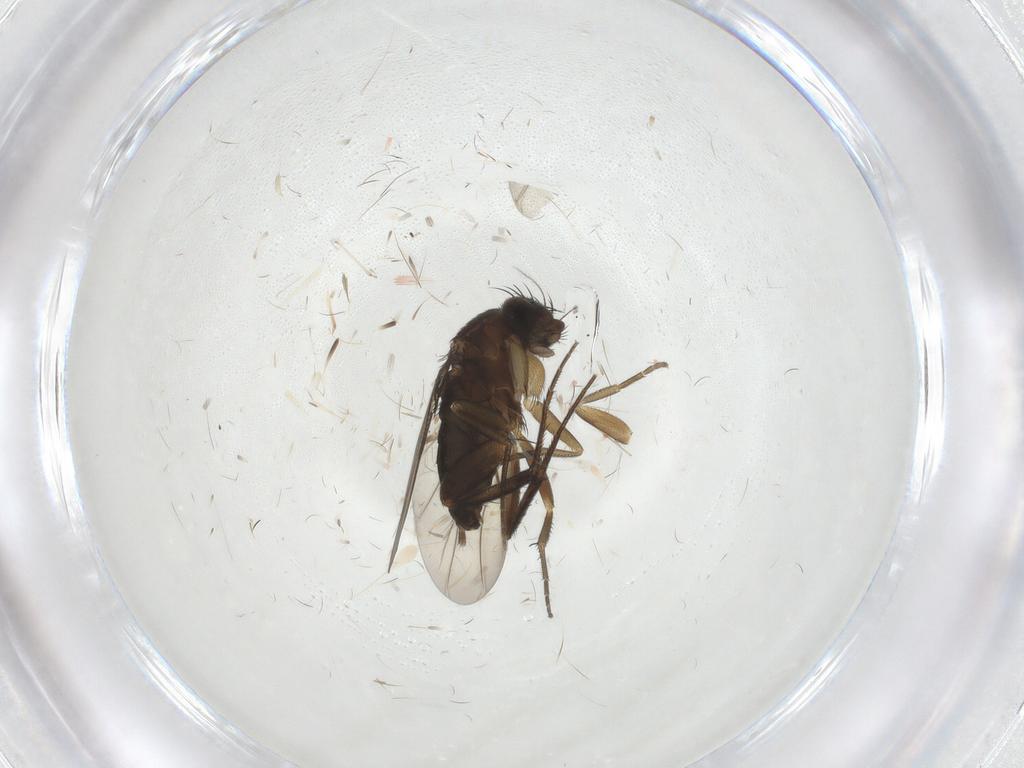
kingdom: Animalia
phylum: Arthropoda
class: Insecta
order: Diptera
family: Phoridae
